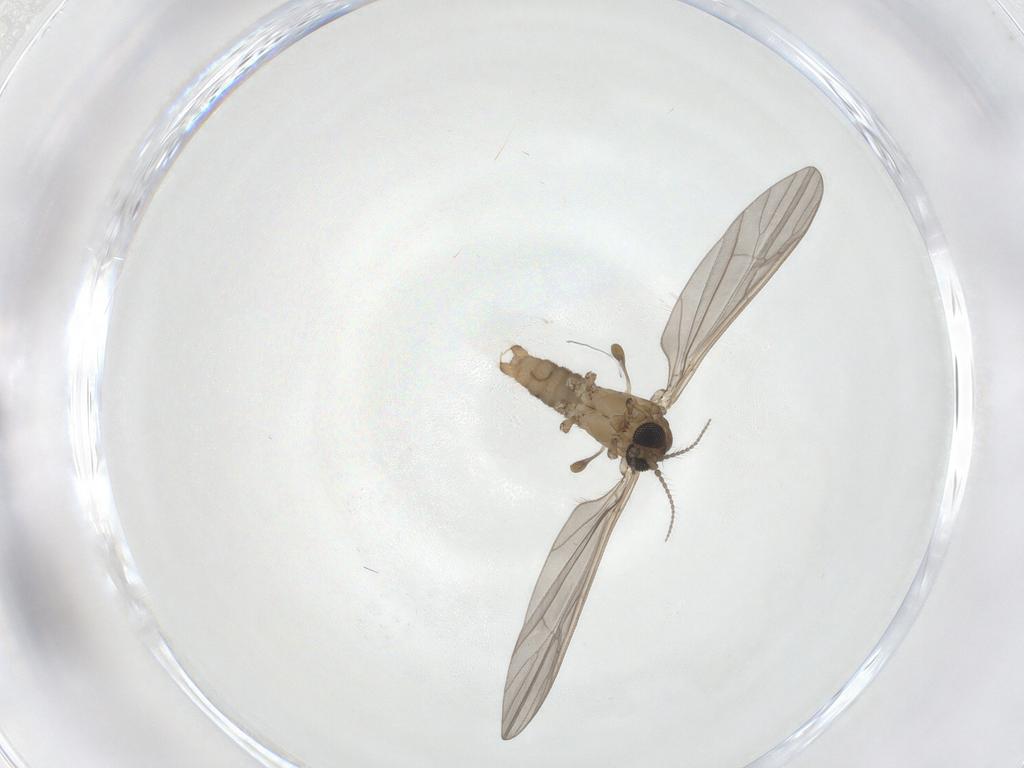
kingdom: Animalia
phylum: Arthropoda
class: Insecta
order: Diptera
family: Limoniidae
